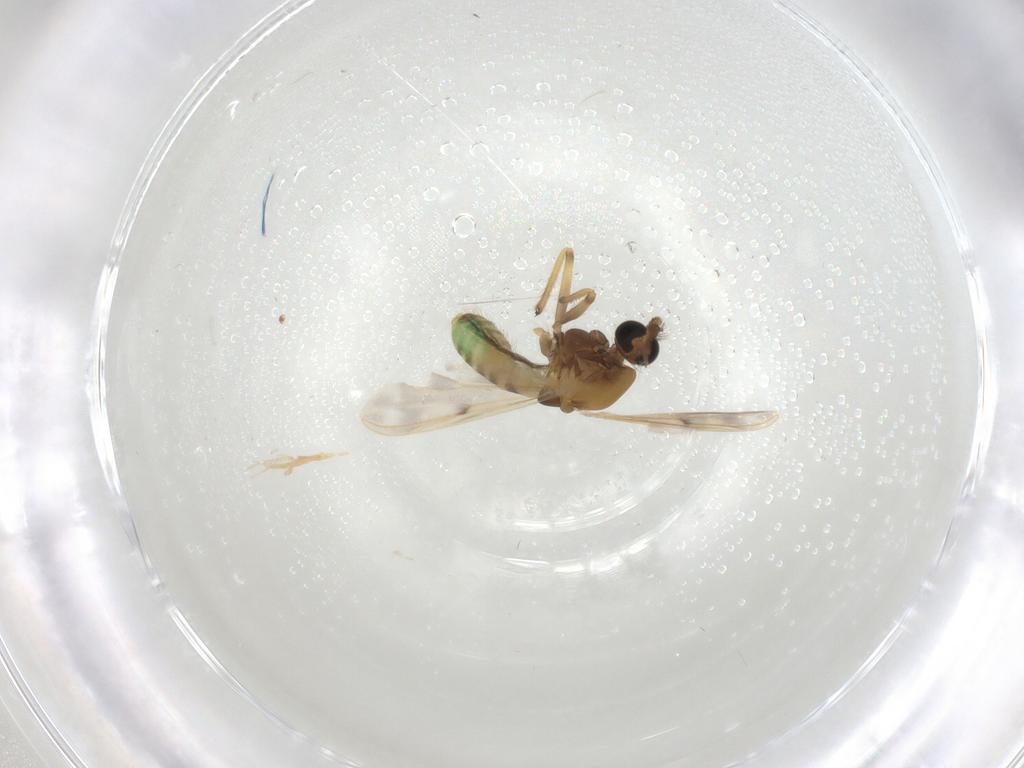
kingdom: Animalia
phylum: Arthropoda
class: Insecta
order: Diptera
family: Chironomidae
